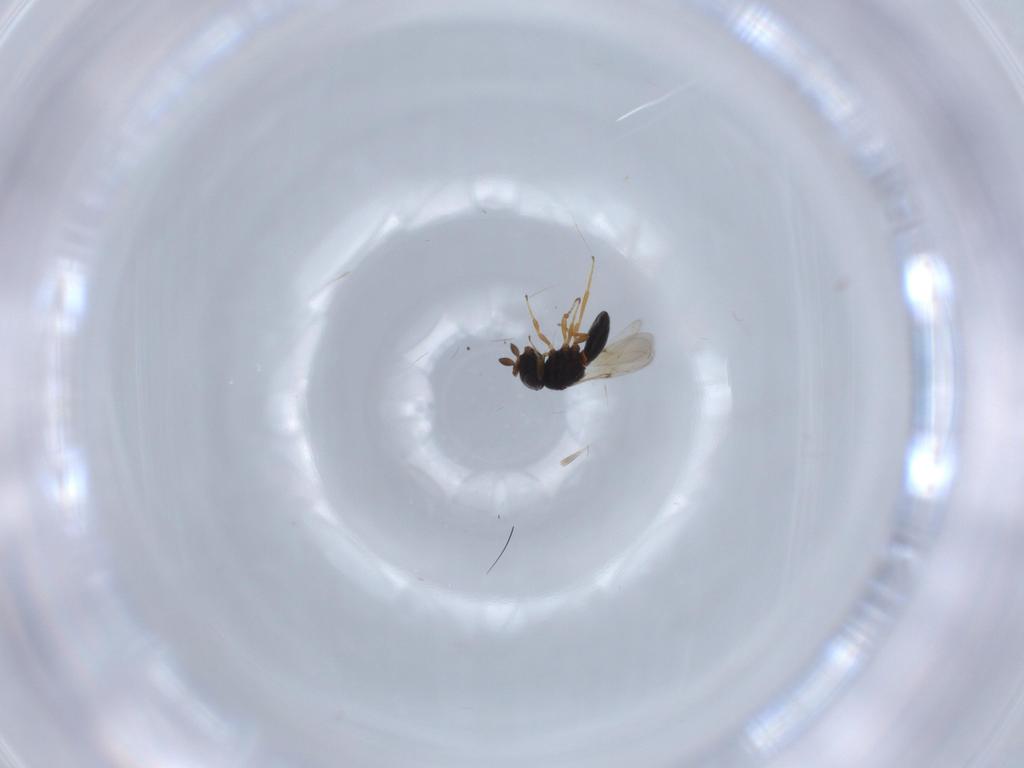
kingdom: Animalia
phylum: Arthropoda
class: Insecta
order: Hymenoptera
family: Scelionidae
